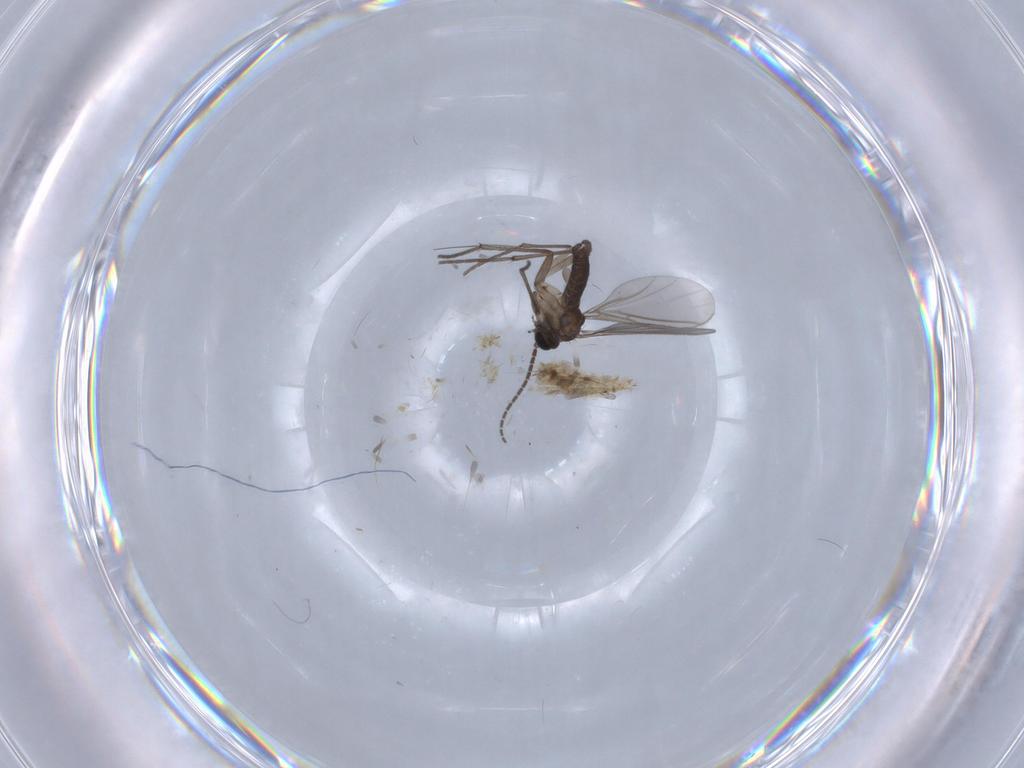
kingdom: Animalia
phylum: Arthropoda
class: Insecta
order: Diptera
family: Sciaridae
